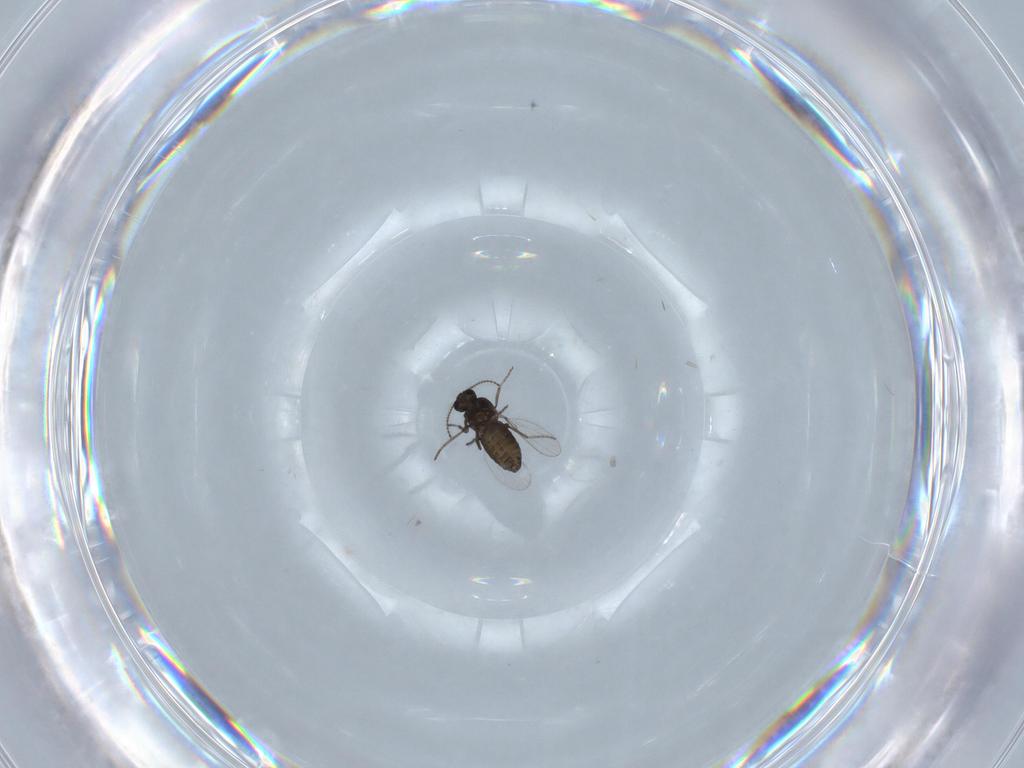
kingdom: Animalia
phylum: Arthropoda
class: Insecta
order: Diptera
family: Ceratopogonidae
